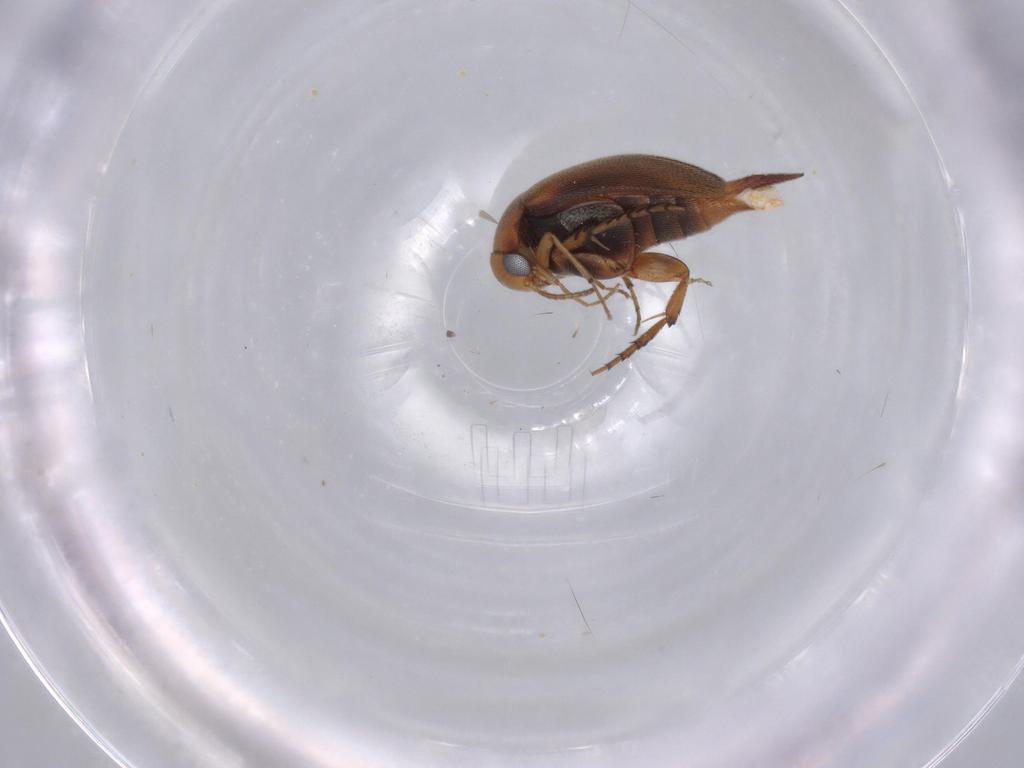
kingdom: Animalia
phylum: Arthropoda
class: Insecta
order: Coleoptera
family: Mordellidae
